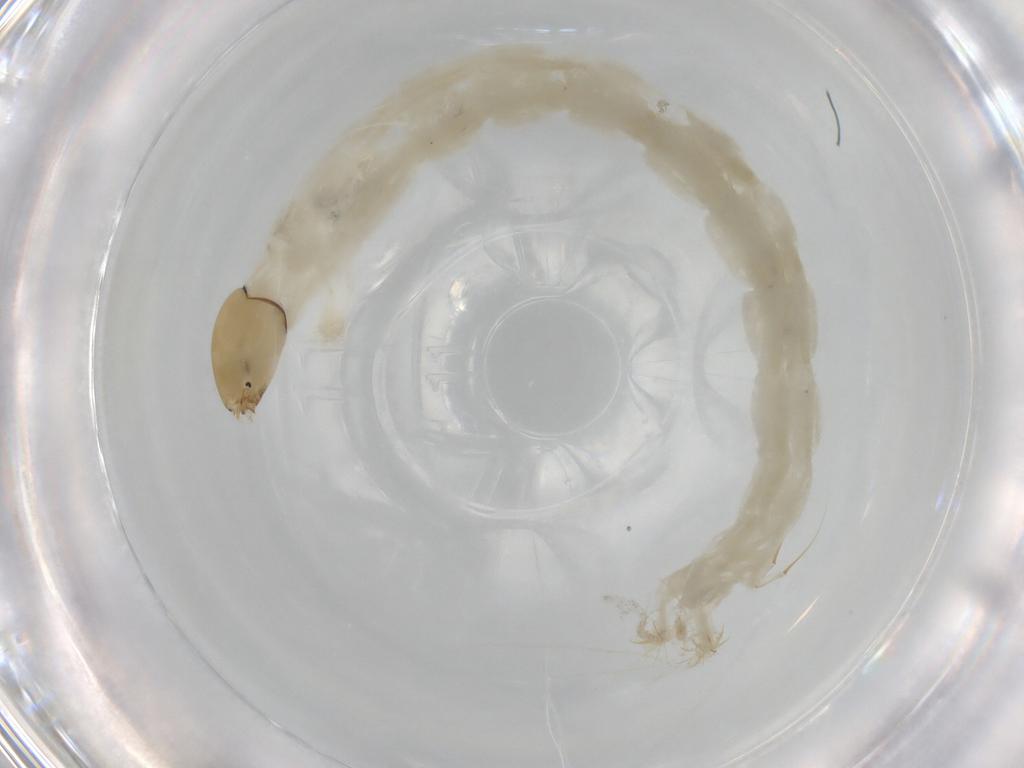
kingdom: Animalia
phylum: Arthropoda
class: Insecta
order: Diptera
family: Chironomidae
